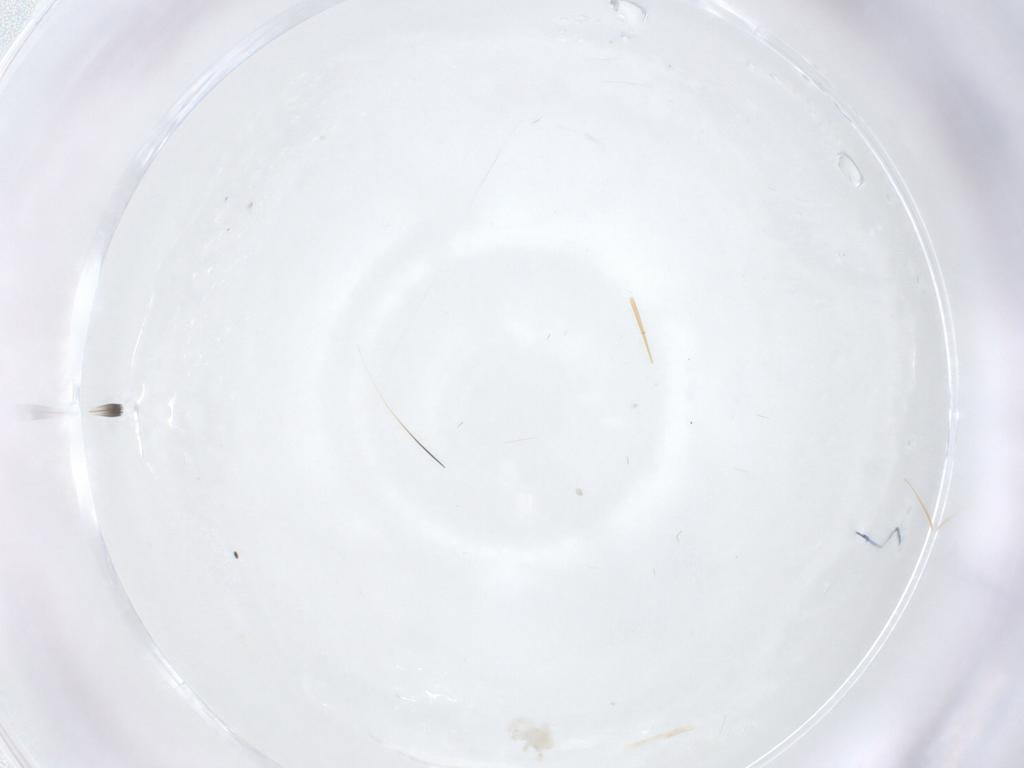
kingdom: Animalia
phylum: Arthropoda
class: Arachnida
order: Trombidiformes
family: Anystidae
